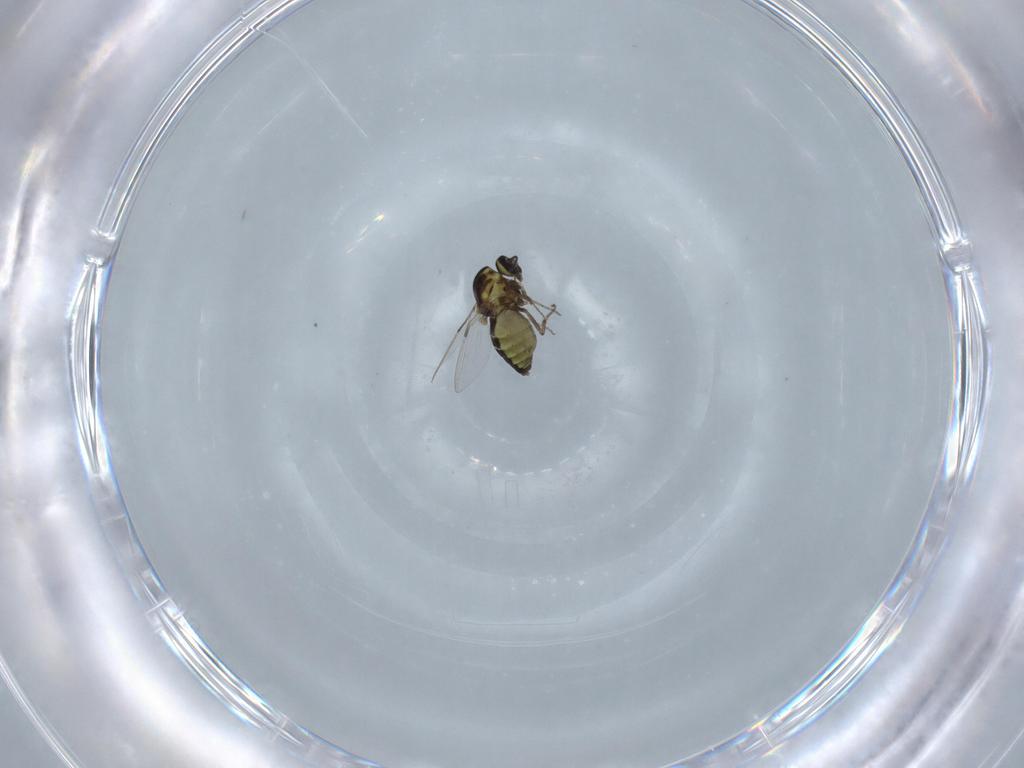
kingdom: Animalia
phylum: Arthropoda
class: Insecta
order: Diptera
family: Ceratopogonidae
